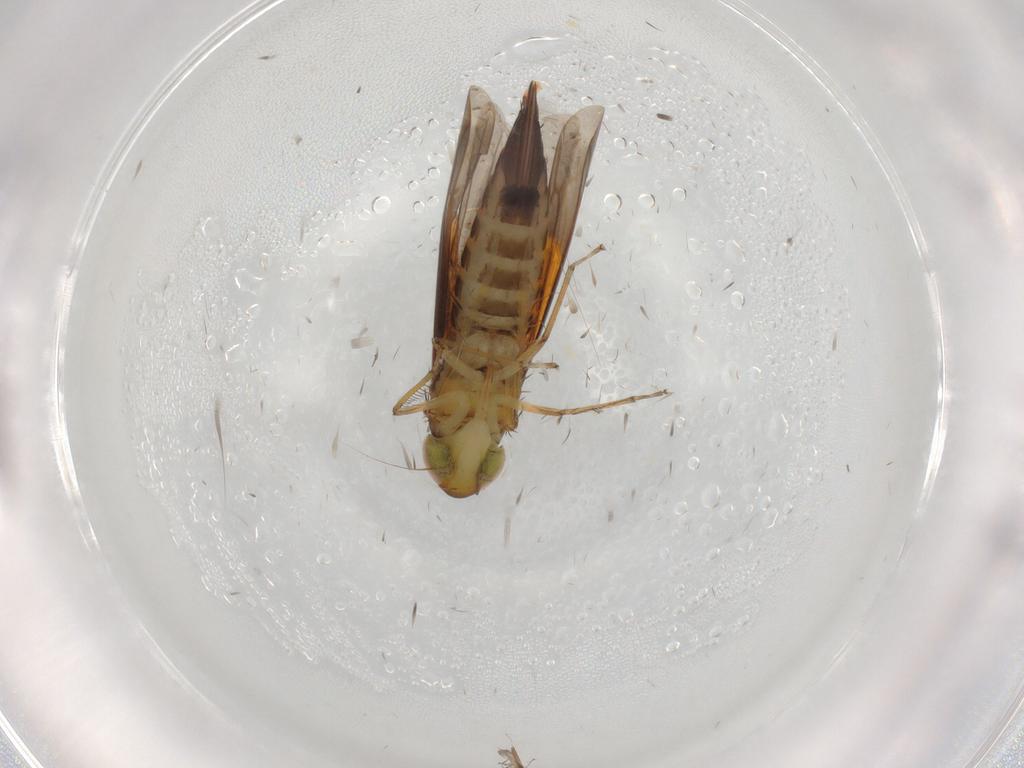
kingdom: Animalia
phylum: Arthropoda
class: Insecta
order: Hemiptera
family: Cicadellidae
